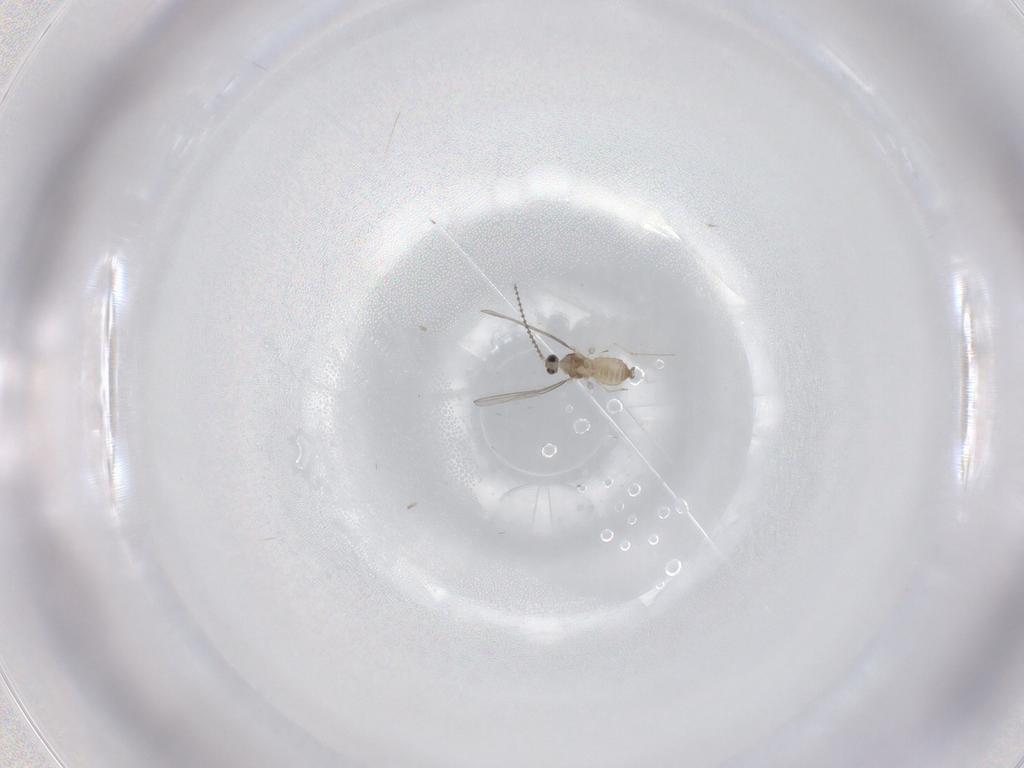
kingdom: Animalia
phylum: Arthropoda
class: Insecta
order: Diptera
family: Cecidomyiidae
